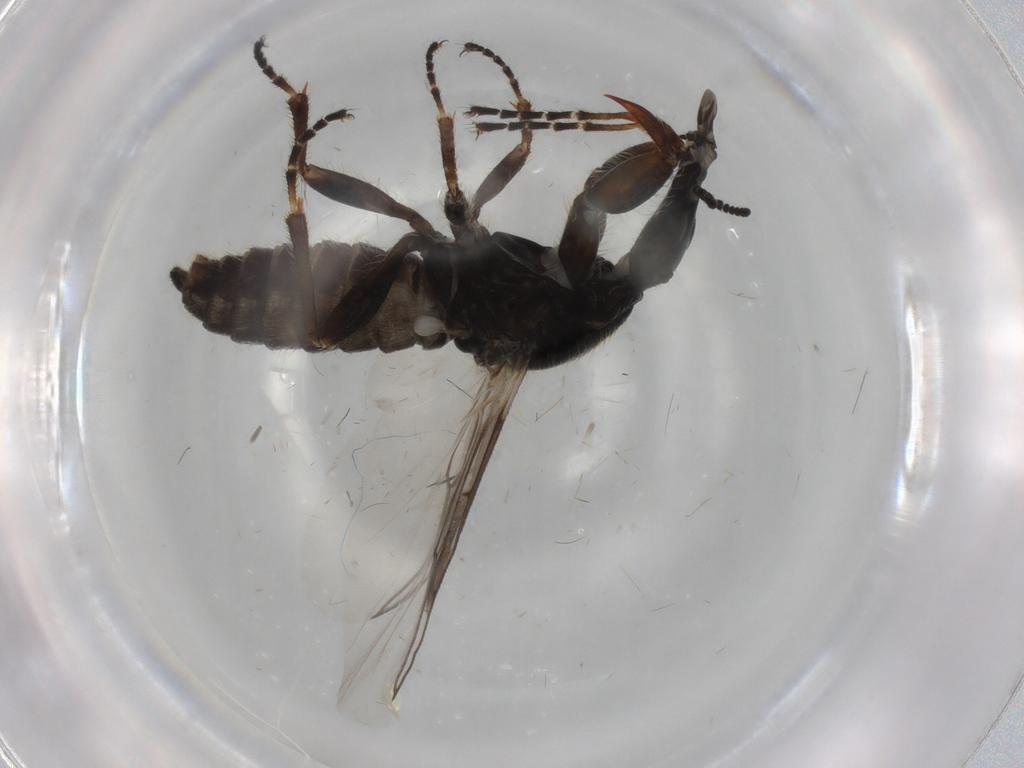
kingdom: Animalia
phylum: Arthropoda
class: Insecta
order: Diptera
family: Bibionidae
